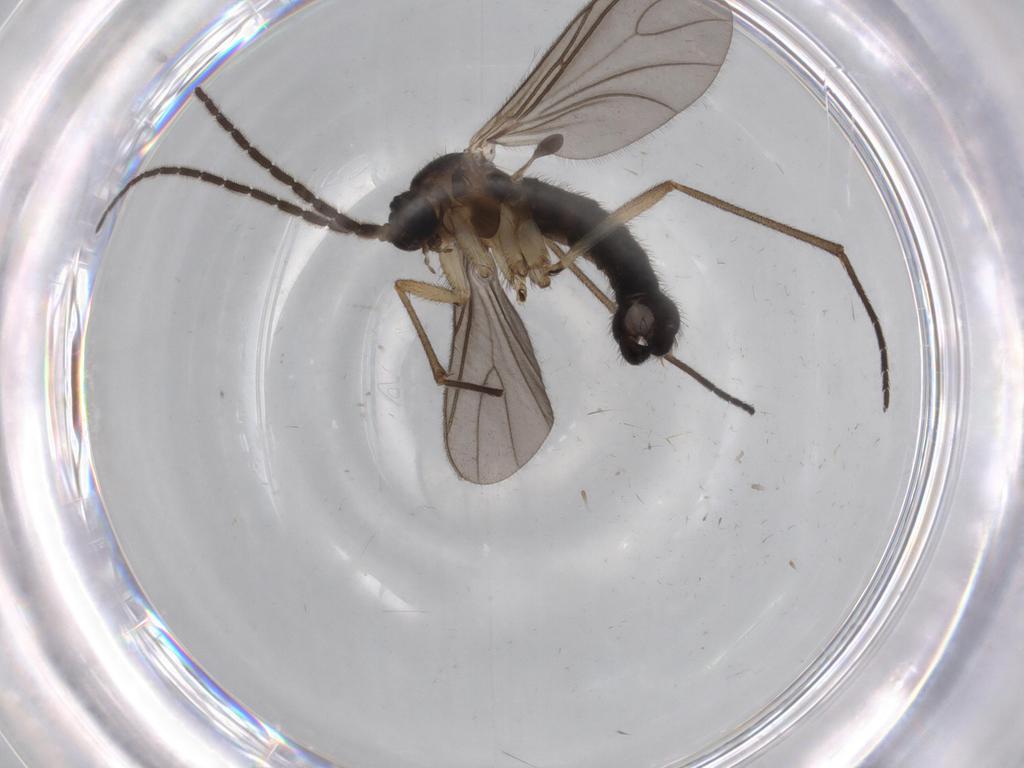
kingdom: Animalia
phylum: Arthropoda
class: Insecta
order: Diptera
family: Sciaridae
